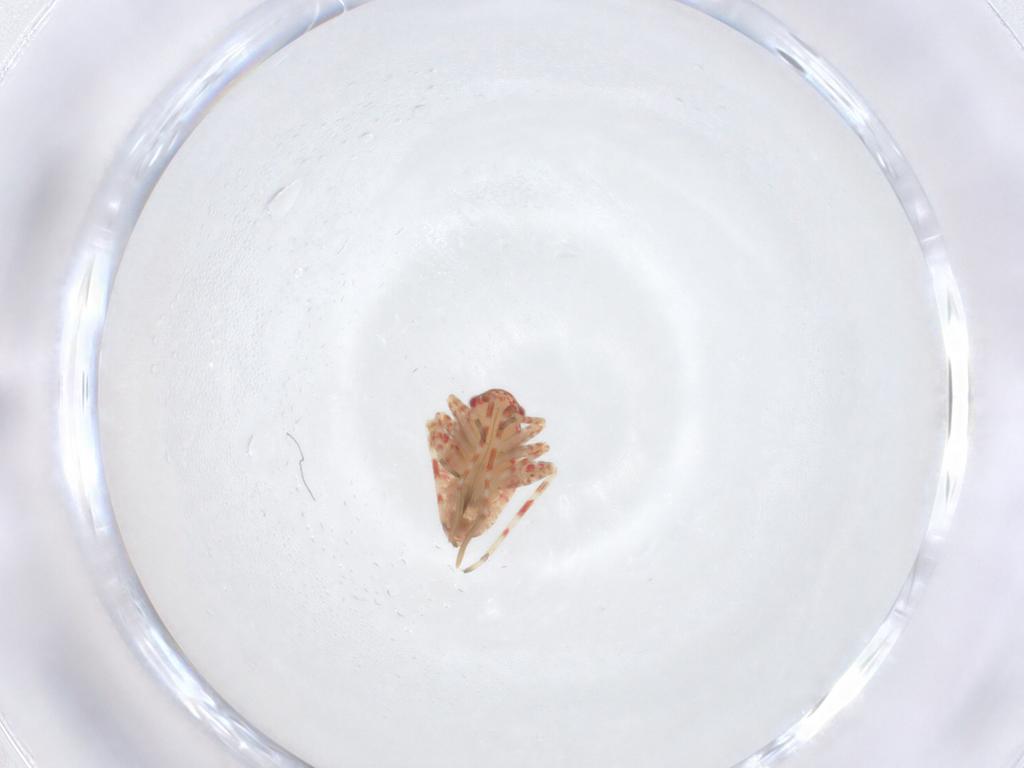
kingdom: Animalia
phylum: Arthropoda
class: Insecta
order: Hemiptera
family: Miridae
